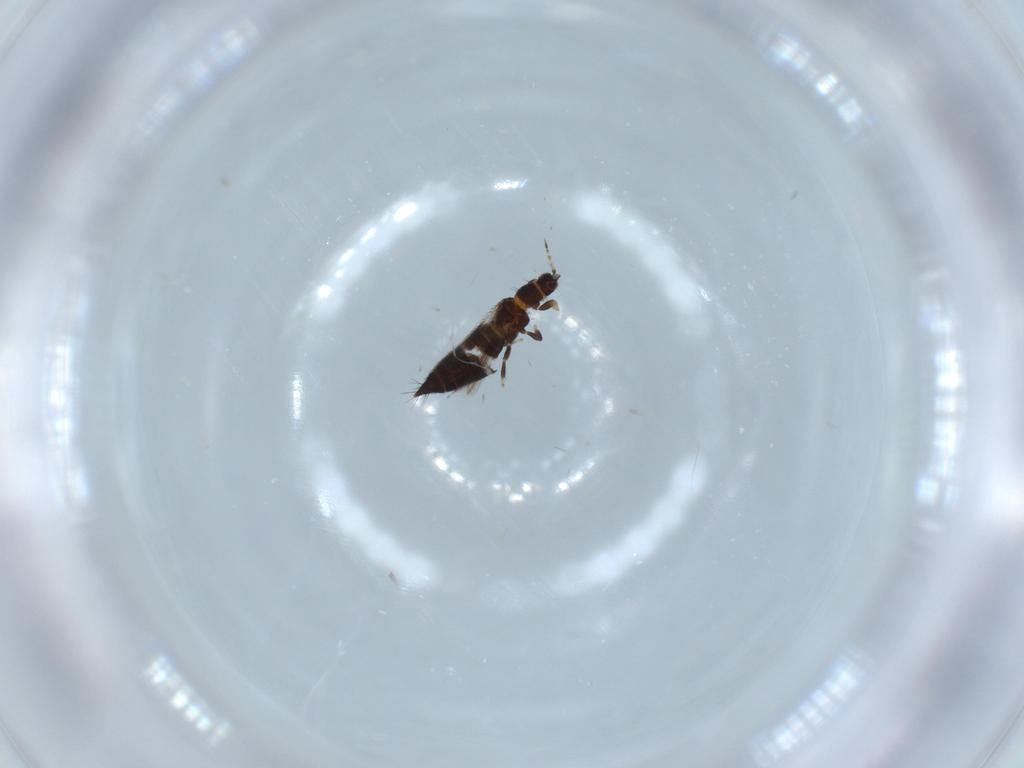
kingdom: Animalia
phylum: Arthropoda
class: Insecta
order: Thysanoptera
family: Thripidae
